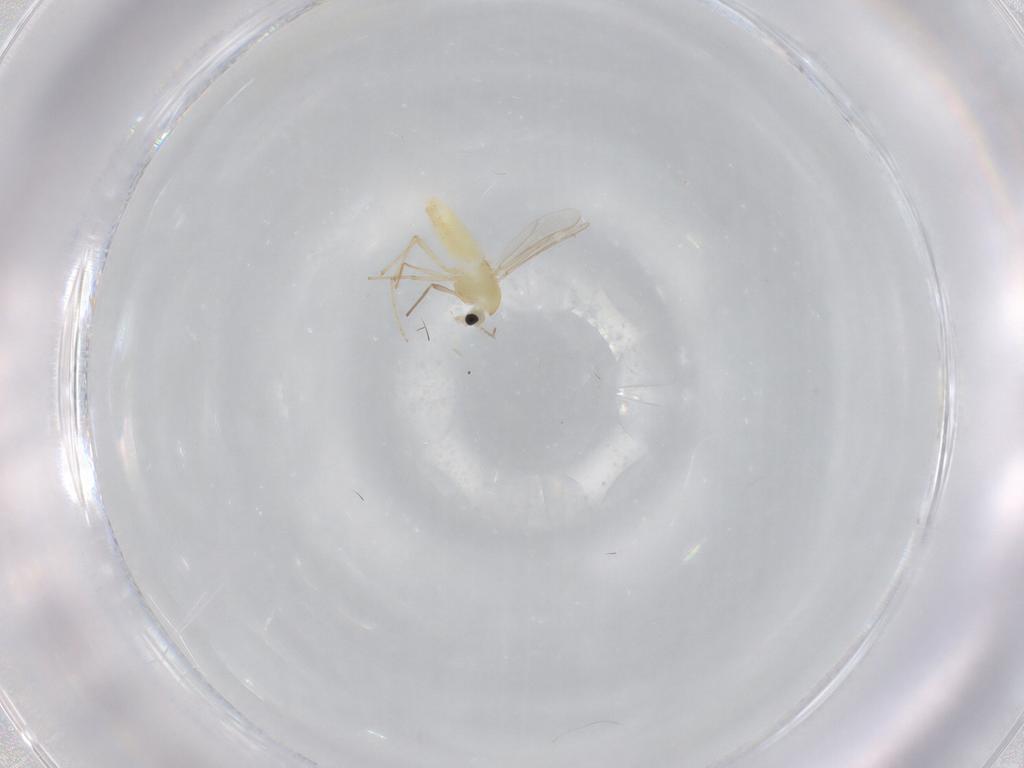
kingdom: Animalia
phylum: Arthropoda
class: Insecta
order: Diptera
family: Chironomidae
